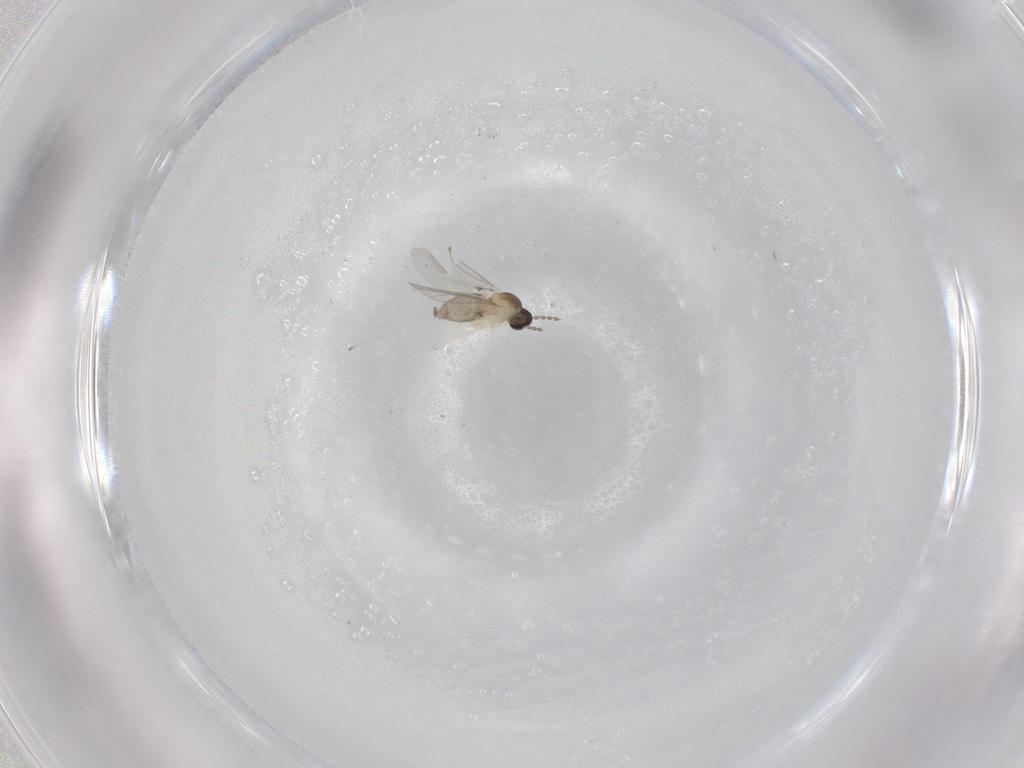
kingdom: Animalia
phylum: Arthropoda
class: Insecta
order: Diptera
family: Cecidomyiidae
